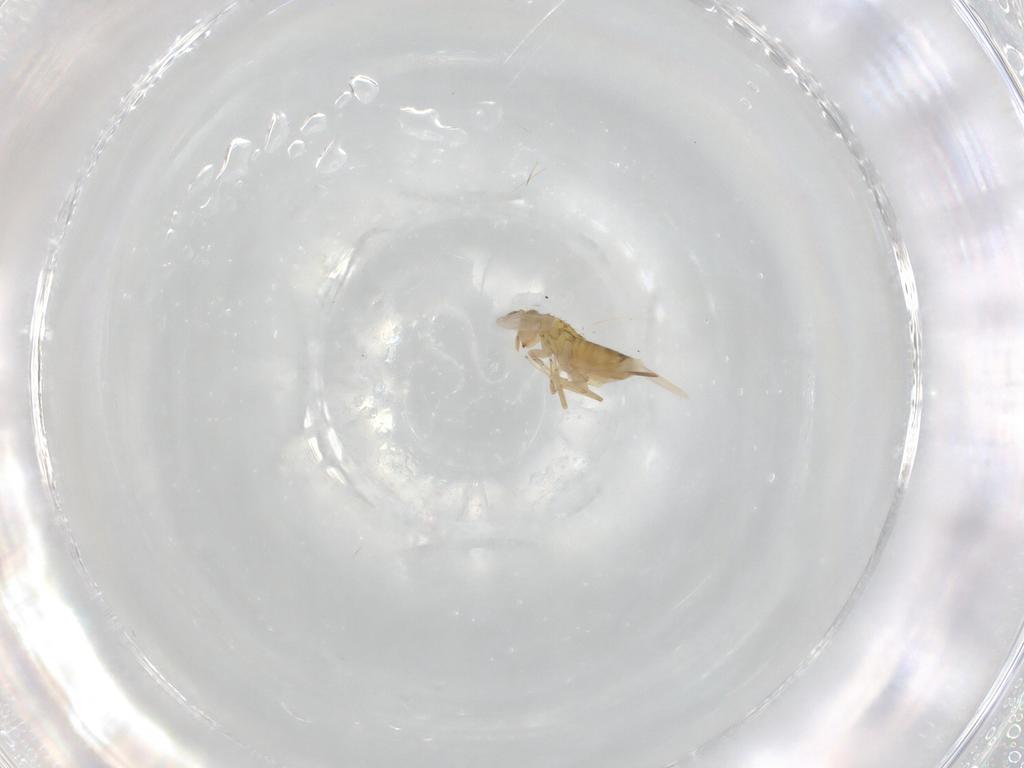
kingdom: Animalia
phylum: Arthropoda
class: Insecta
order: Hymenoptera
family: Aphelinidae
